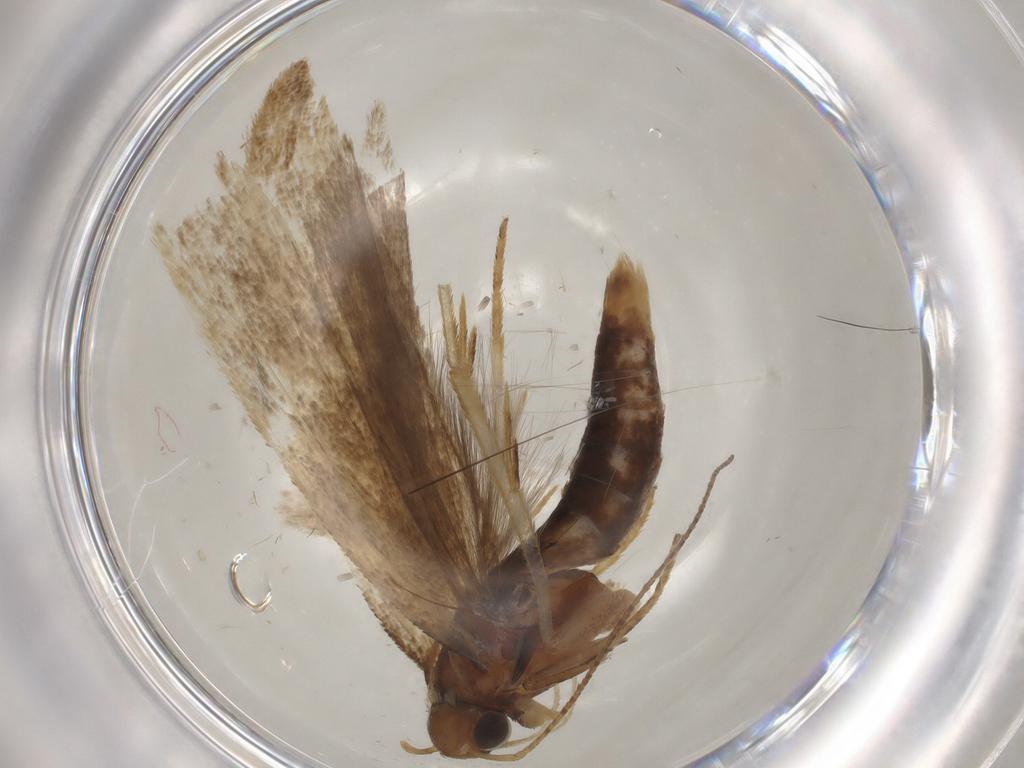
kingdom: Animalia
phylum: Arthropoda
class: Insecta
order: Lepidoptera
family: Gelechiidae
